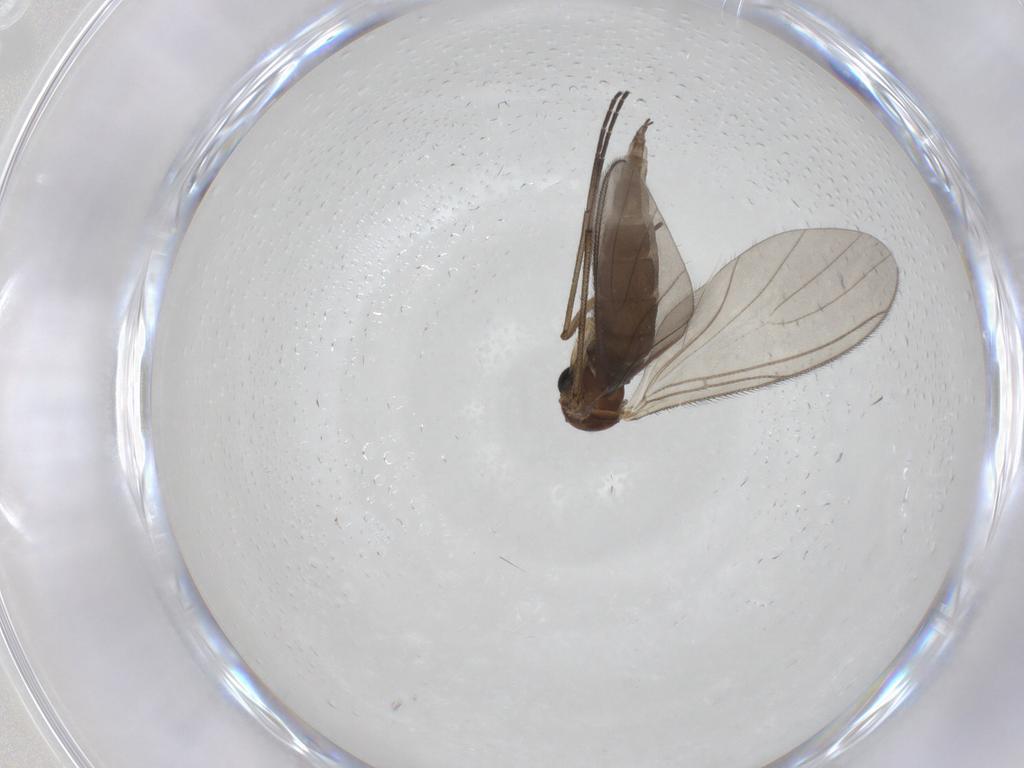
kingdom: Animalia
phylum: Arthropoda
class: Insecta
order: Diptera
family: Sciaridae
